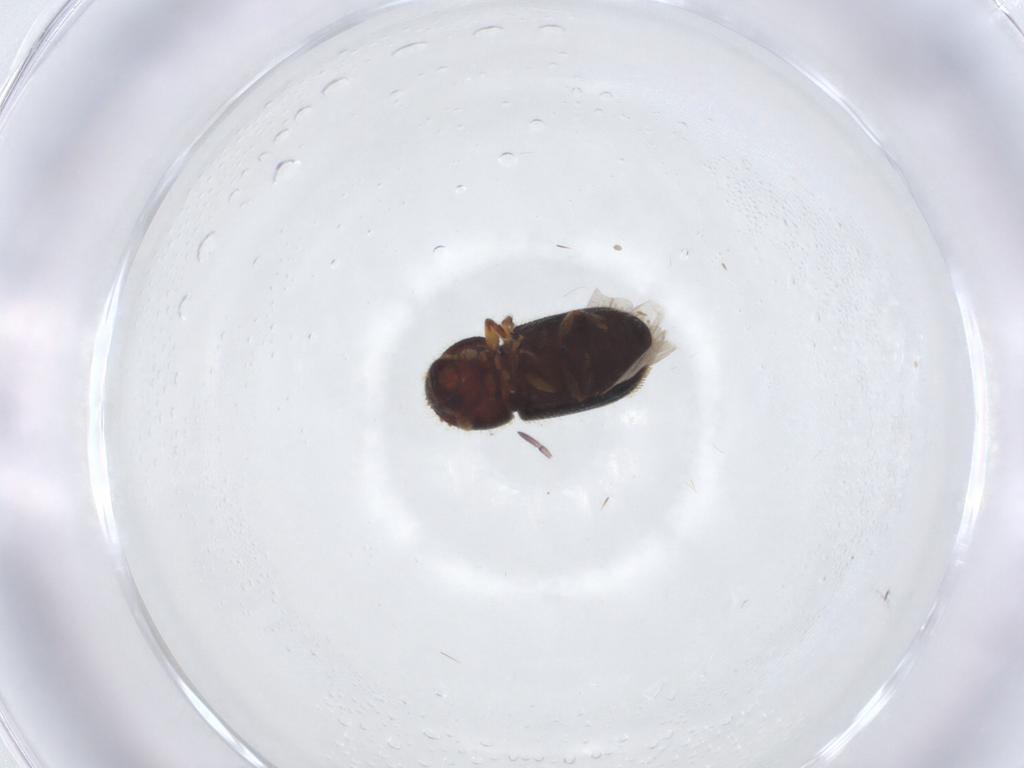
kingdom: Animalia
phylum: Arthropoda
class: Insecta
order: Coleoptera
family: Curculionidae
